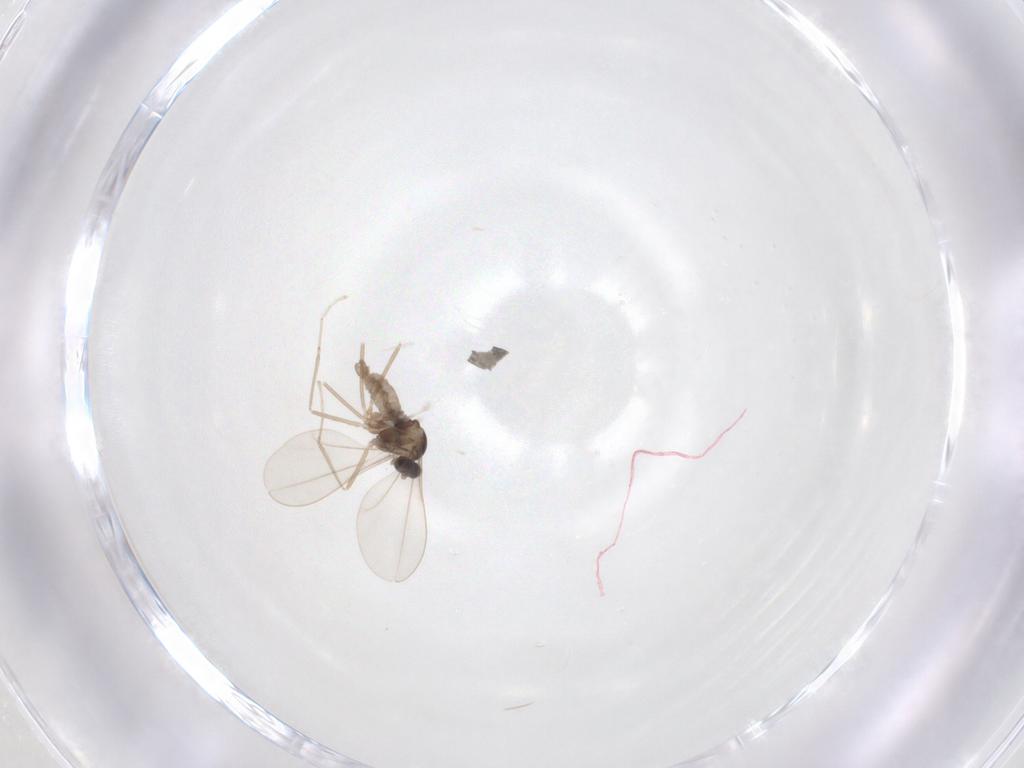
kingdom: Animalia
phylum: Arthropoda
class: Insecta
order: Diptera
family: Cecidomyiidae
